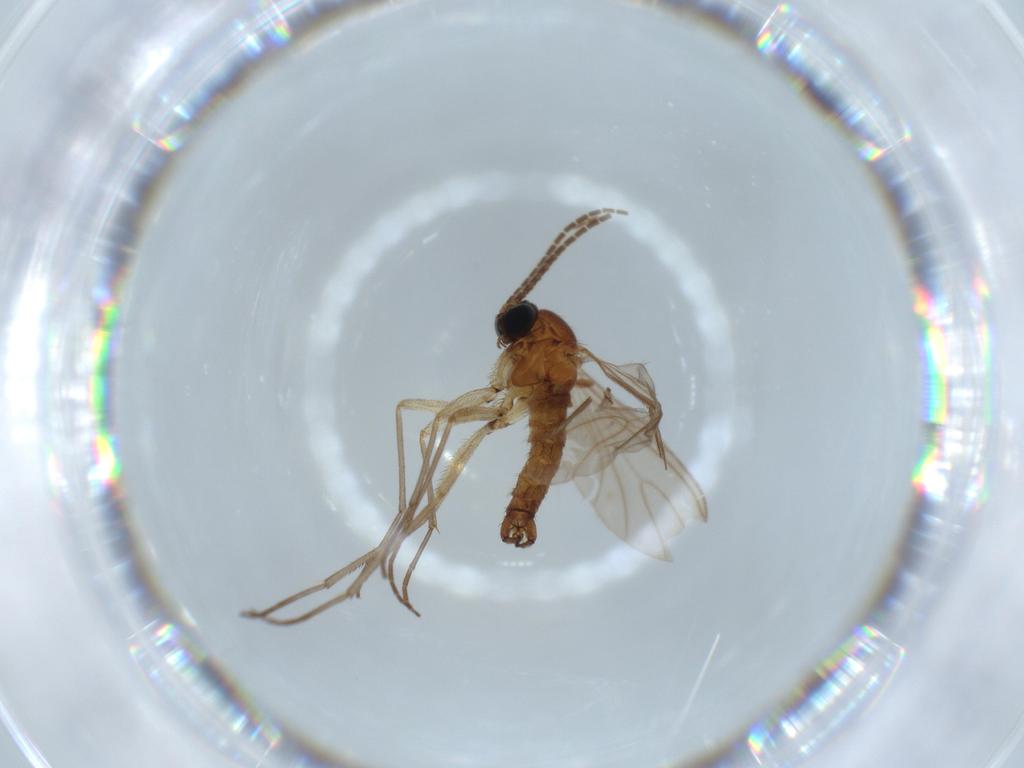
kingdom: Animalia
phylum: Arthropoda
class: Insecta
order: Diptera
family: Sciaridae
